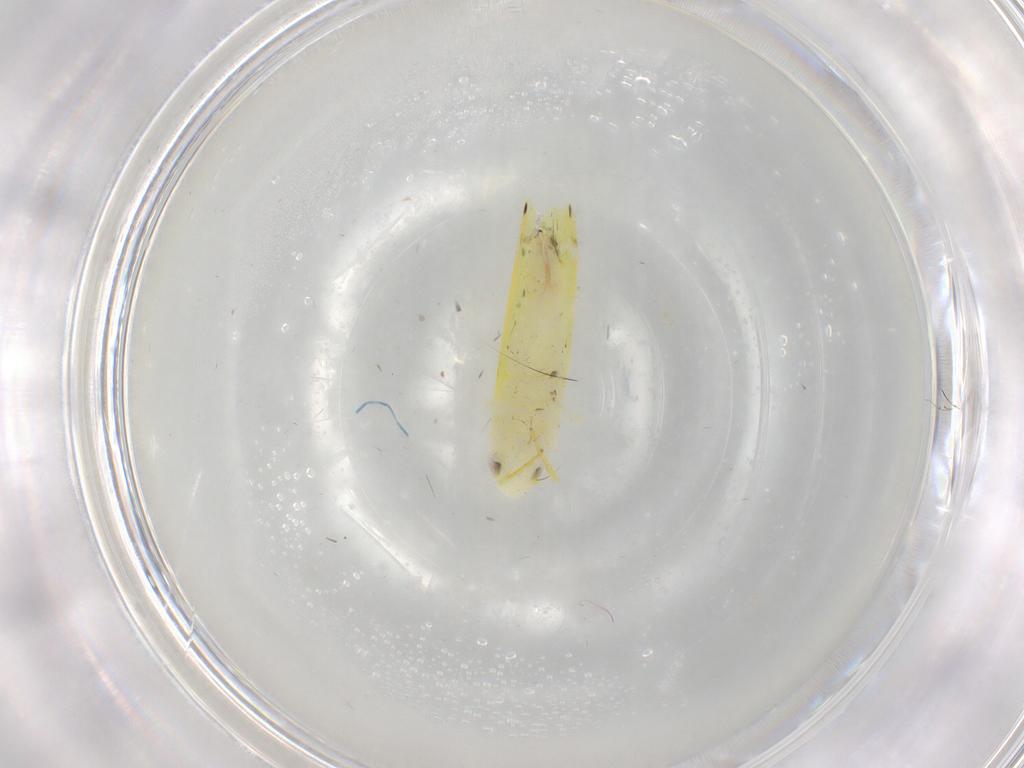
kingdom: Animalia
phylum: Arthropoda
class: Insecta
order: Hemiptera
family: Cicadellidae
